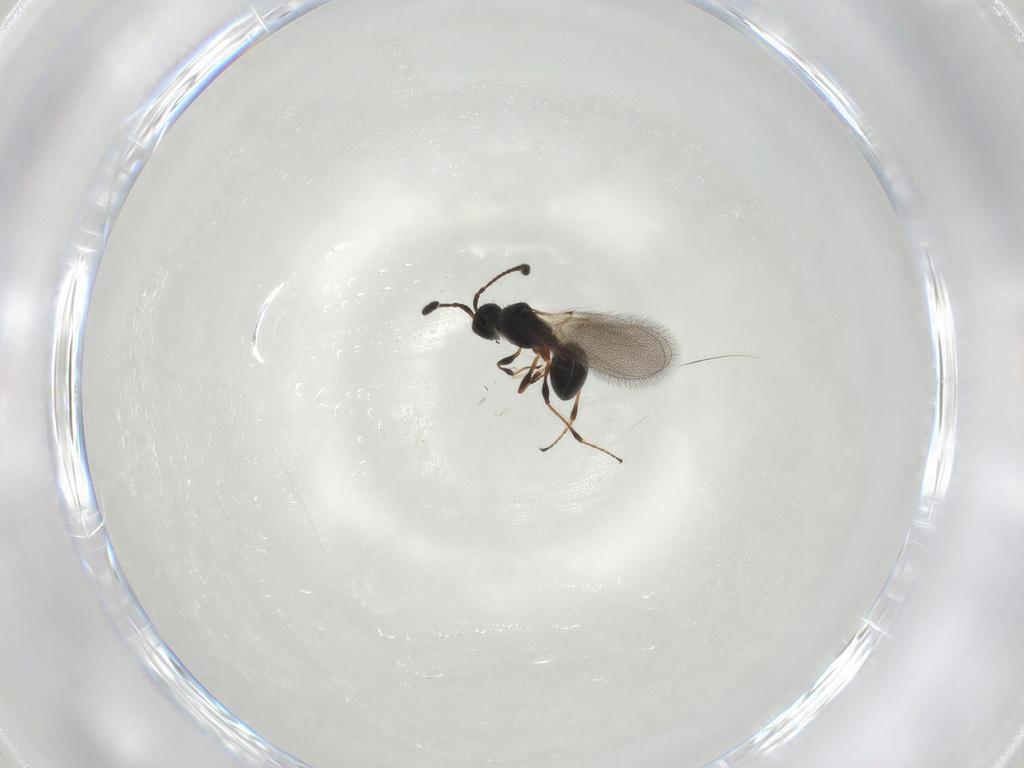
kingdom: Animalia
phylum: Arthropoda
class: Insecta
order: Hymenoptera
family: Diapriidae
